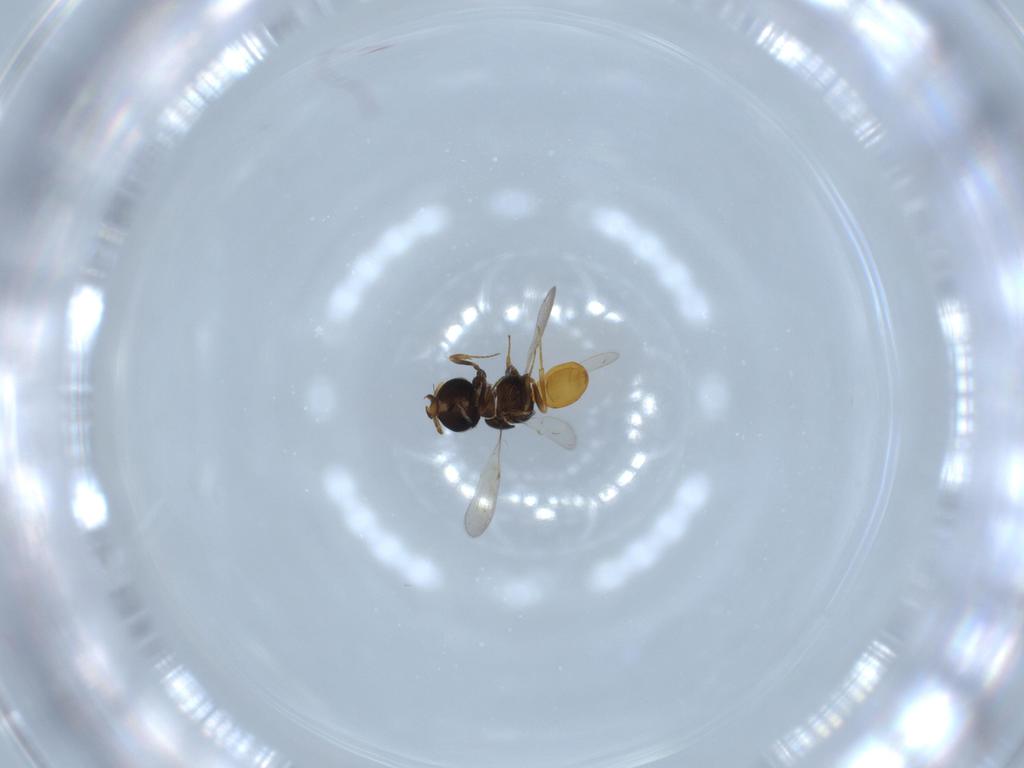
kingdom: Animalia
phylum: Arthropoda
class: Insecta
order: Hymenoptera
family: Scelionidae
